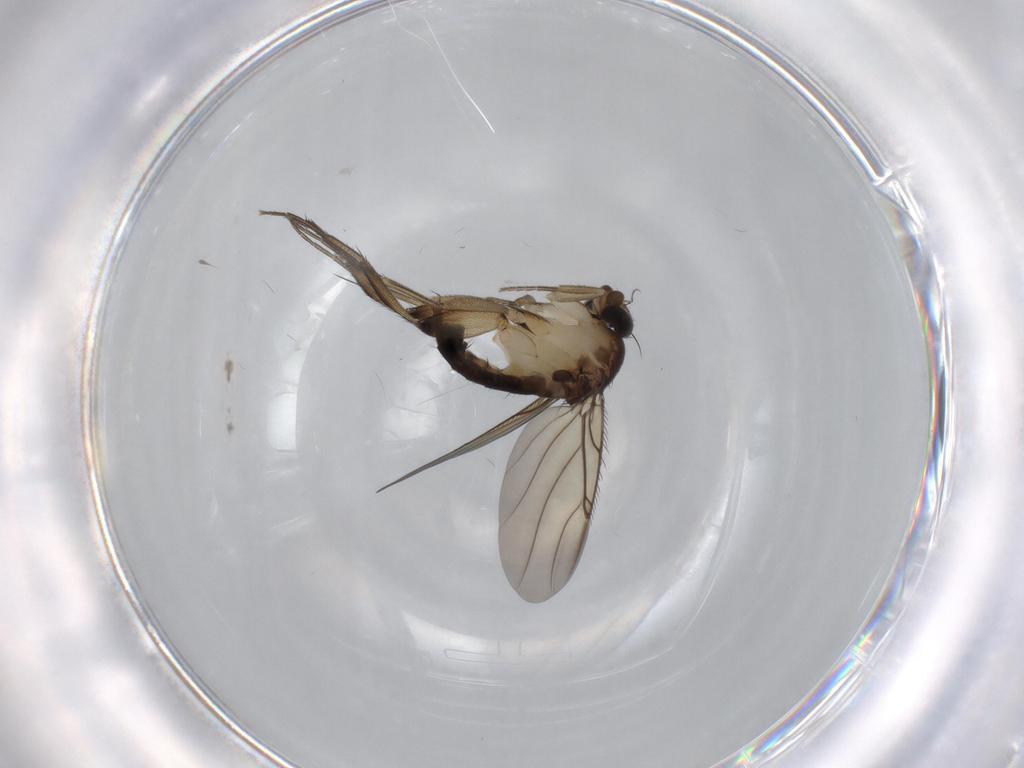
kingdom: Animalia
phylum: Arthropoda
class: Insecta
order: Diptera
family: Phoridae
